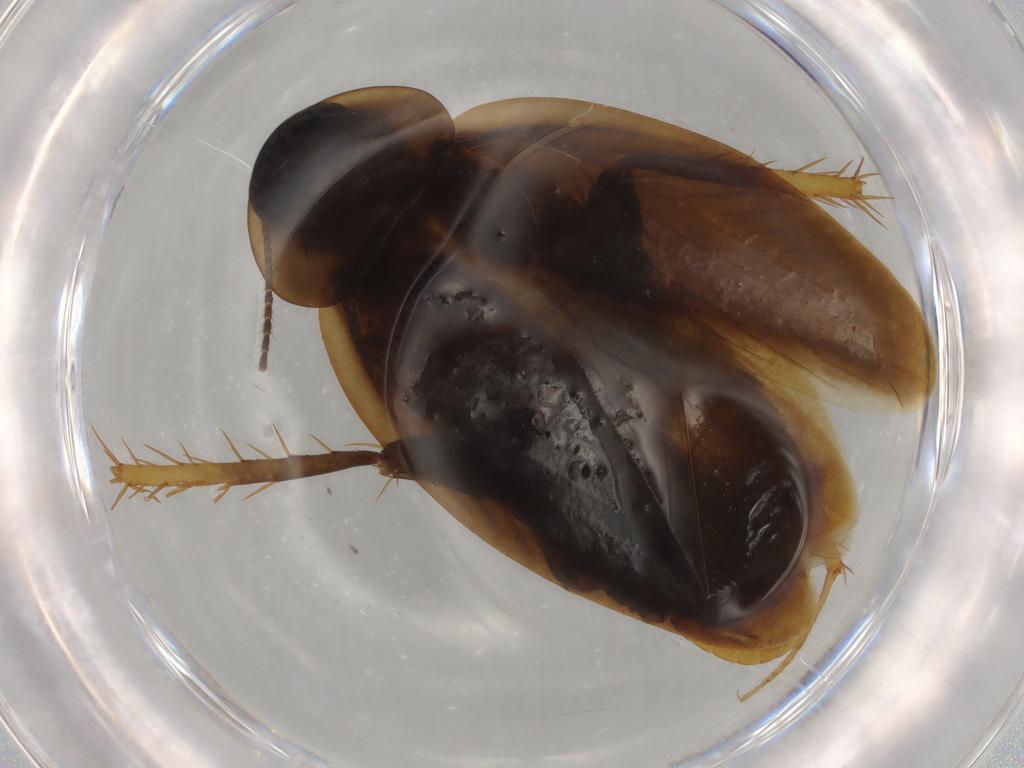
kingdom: Animalia
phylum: Arthropoda
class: Insecta
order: Blattodea
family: Ectobiidae
